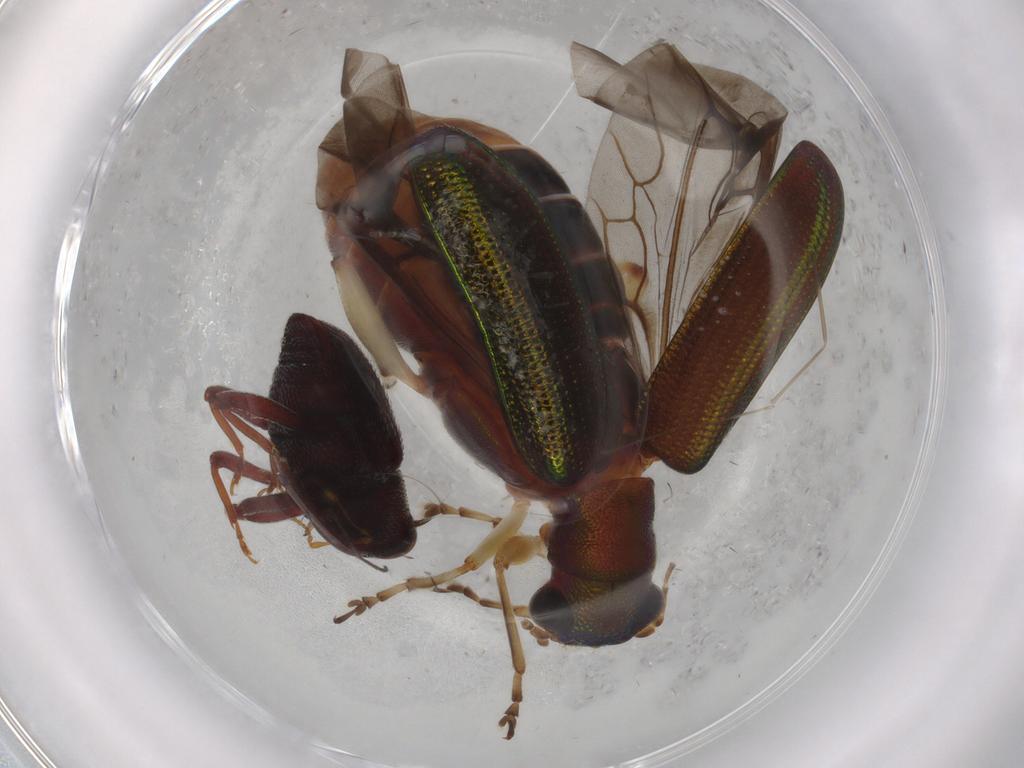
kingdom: Animalia
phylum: Arthropoda
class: Insecta
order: Coleoptera
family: Chrysomelidae
